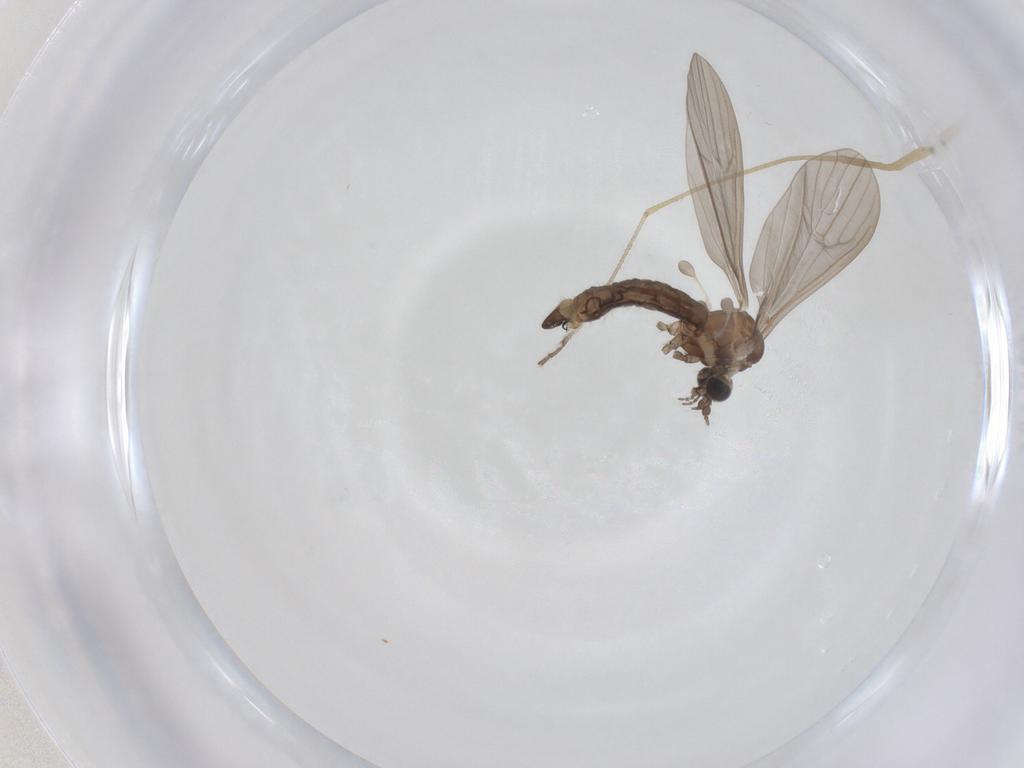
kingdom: Animalia
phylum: Arthropoda
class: Insecta
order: Diptera
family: Limoniidae
